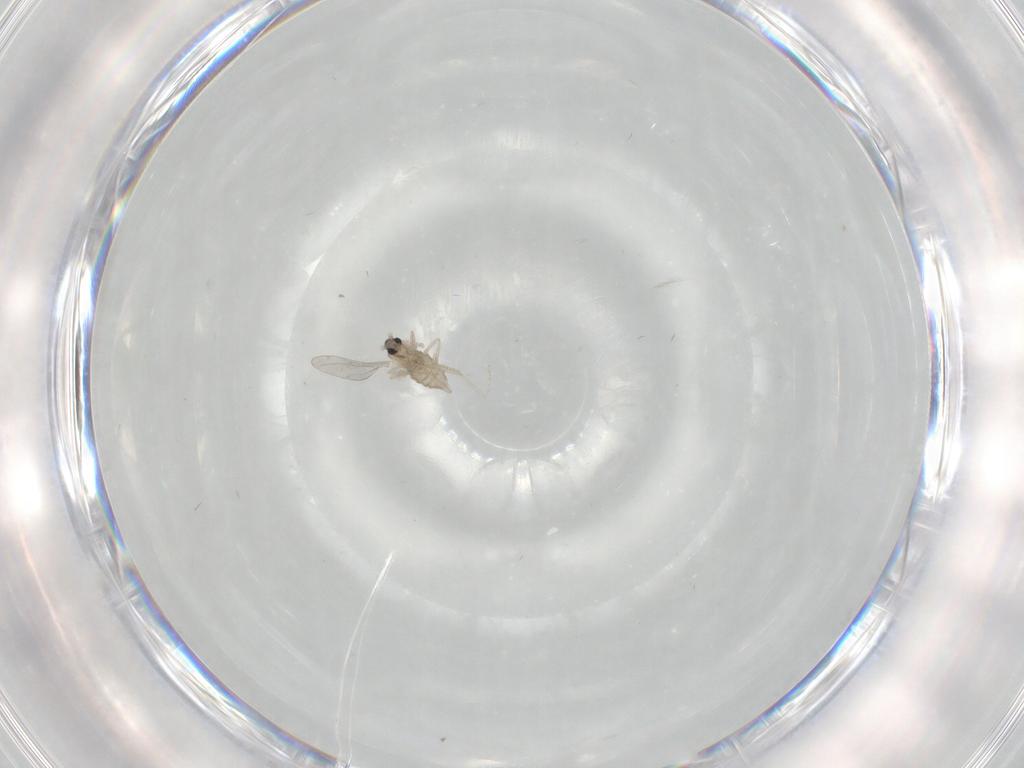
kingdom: Animalia
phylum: Arthropoda
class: Insecta
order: Diptera
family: Cecidomyiidae
